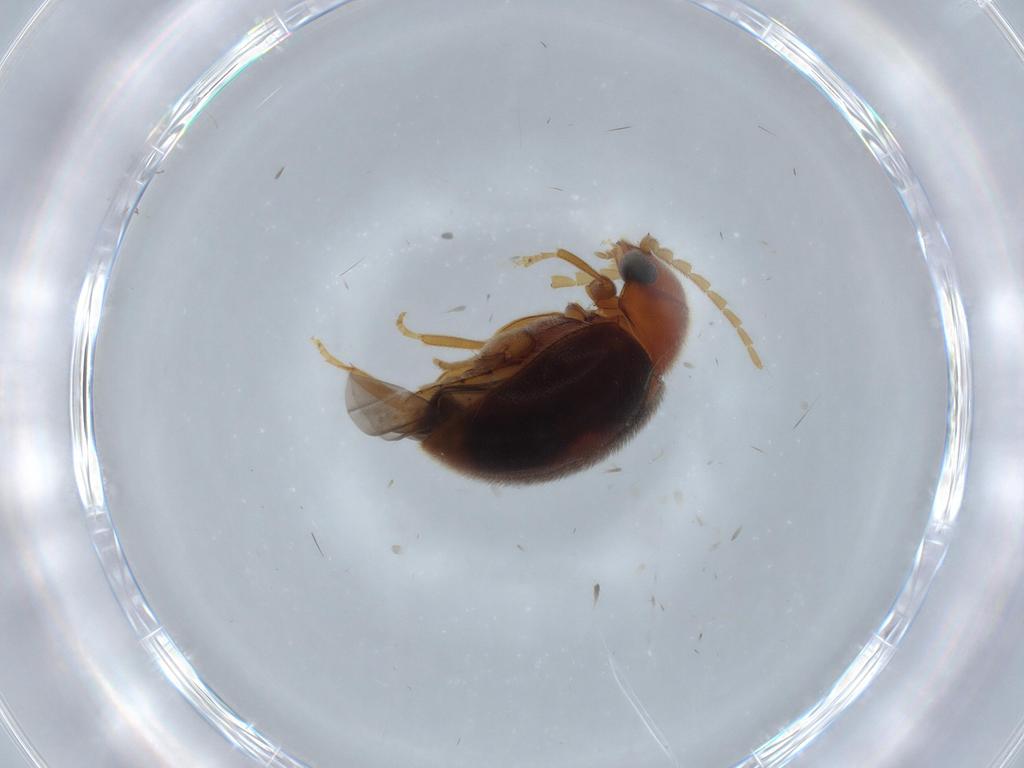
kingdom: Animalia
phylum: Arthropoda
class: Insecta
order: Coleoptera
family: Scirtidae
